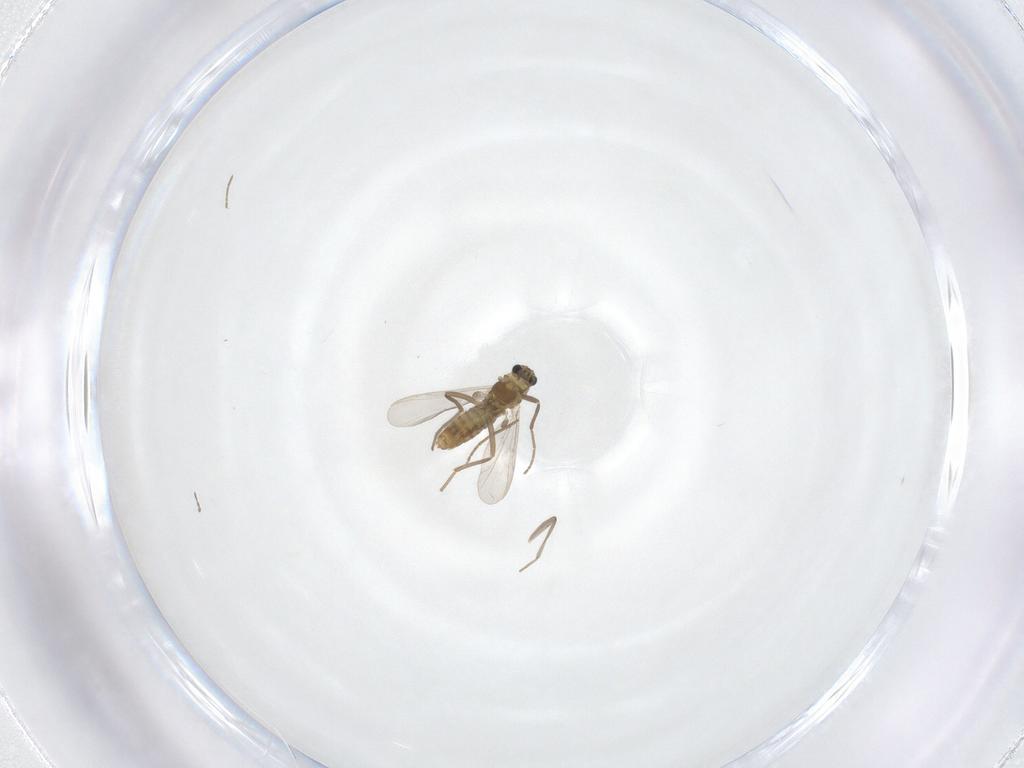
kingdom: Animalia
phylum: Arthropoda
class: Insecta
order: Diptera
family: Chironomidae
